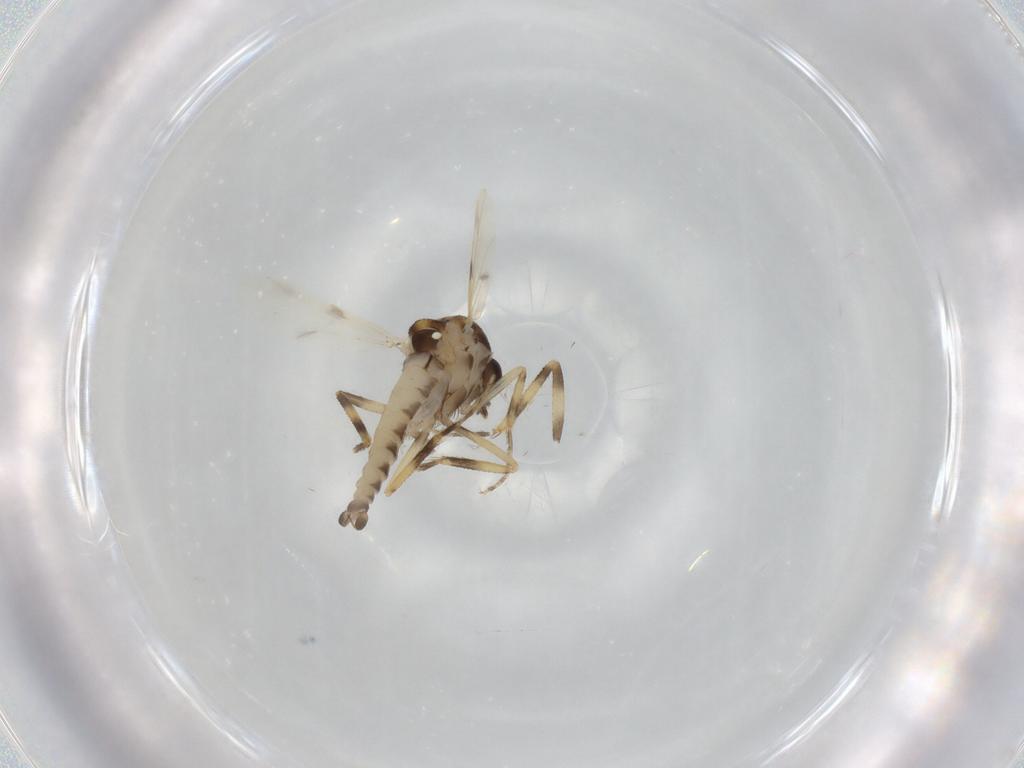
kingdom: Animalia
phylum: Arthropoda
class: Insecta
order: Diptera
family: Ceratopogonidae
